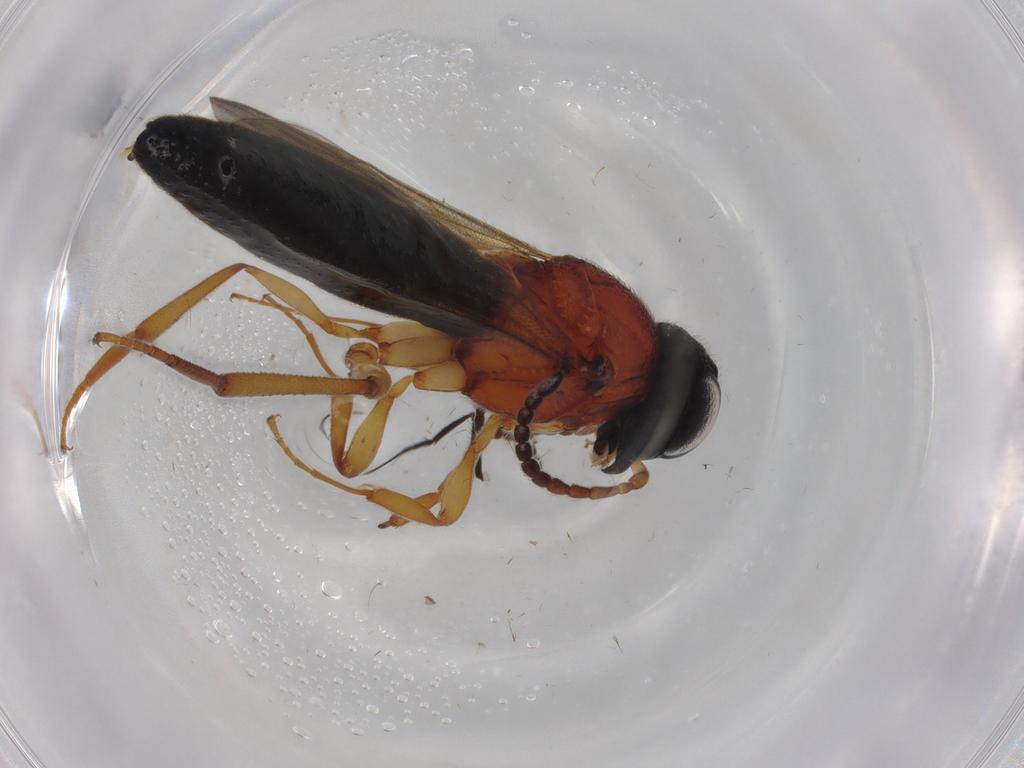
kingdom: Animalia
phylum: Arthropoda
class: Insecta
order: Hymenoptera
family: Scelionidae
